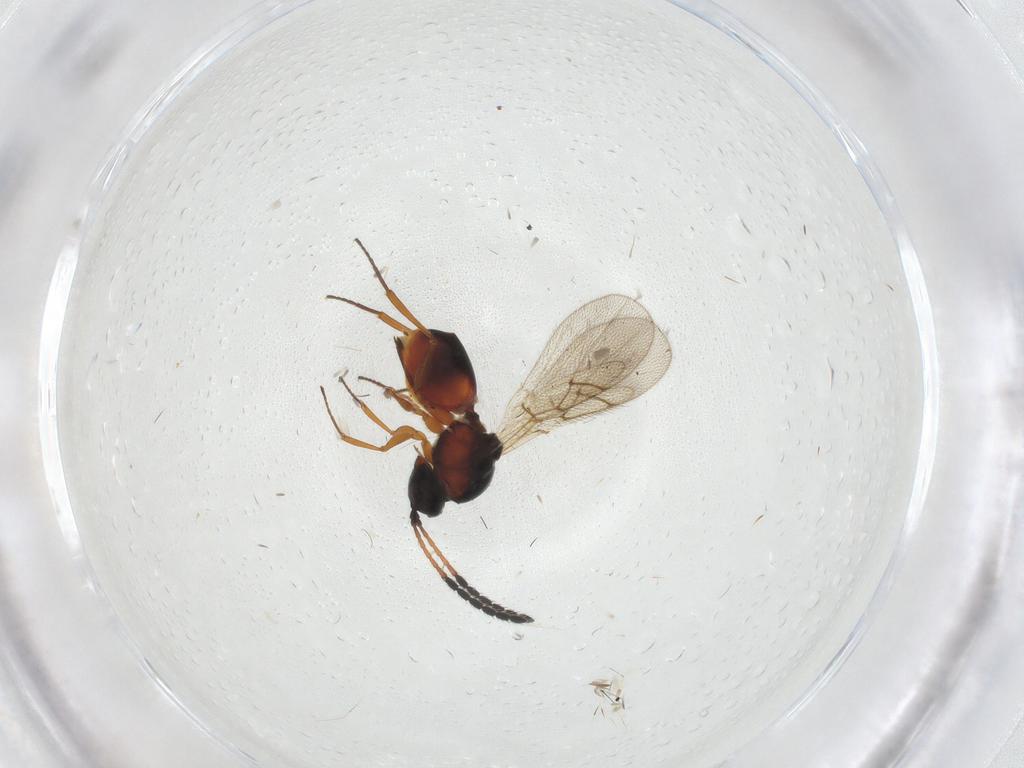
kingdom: Animalia
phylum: Arthropoda
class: Insecta
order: Hymenoptera
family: Figitidae
